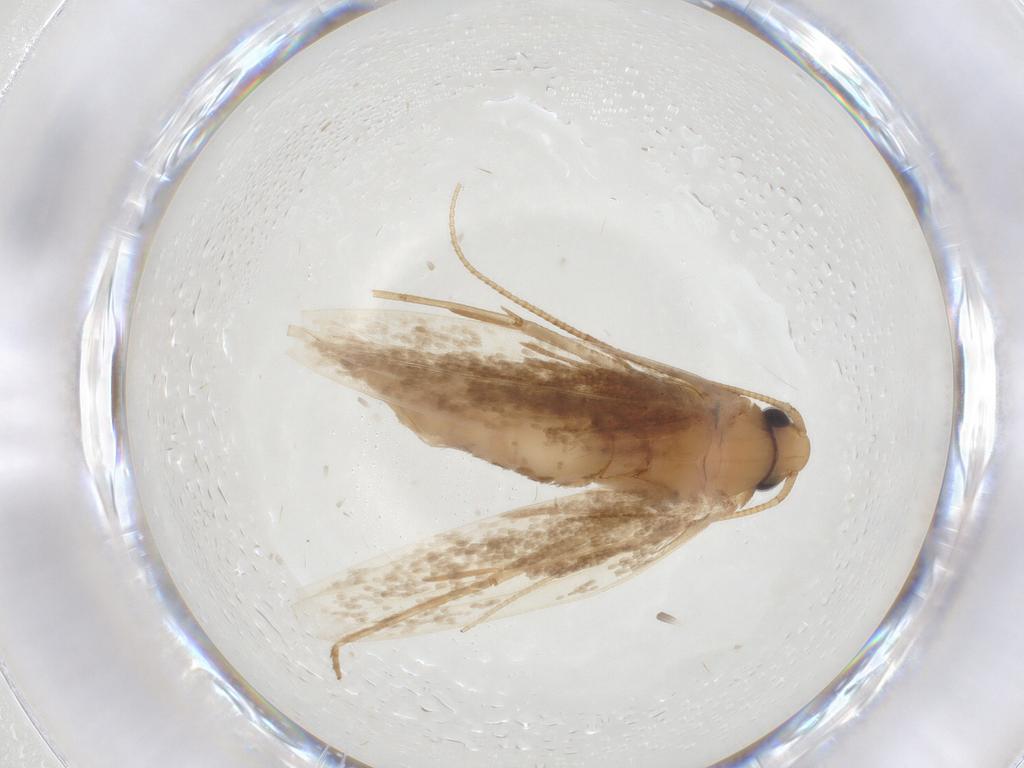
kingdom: Animalia
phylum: Arthropoda
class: Insecta
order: Lepidoptera
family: Tineidae
